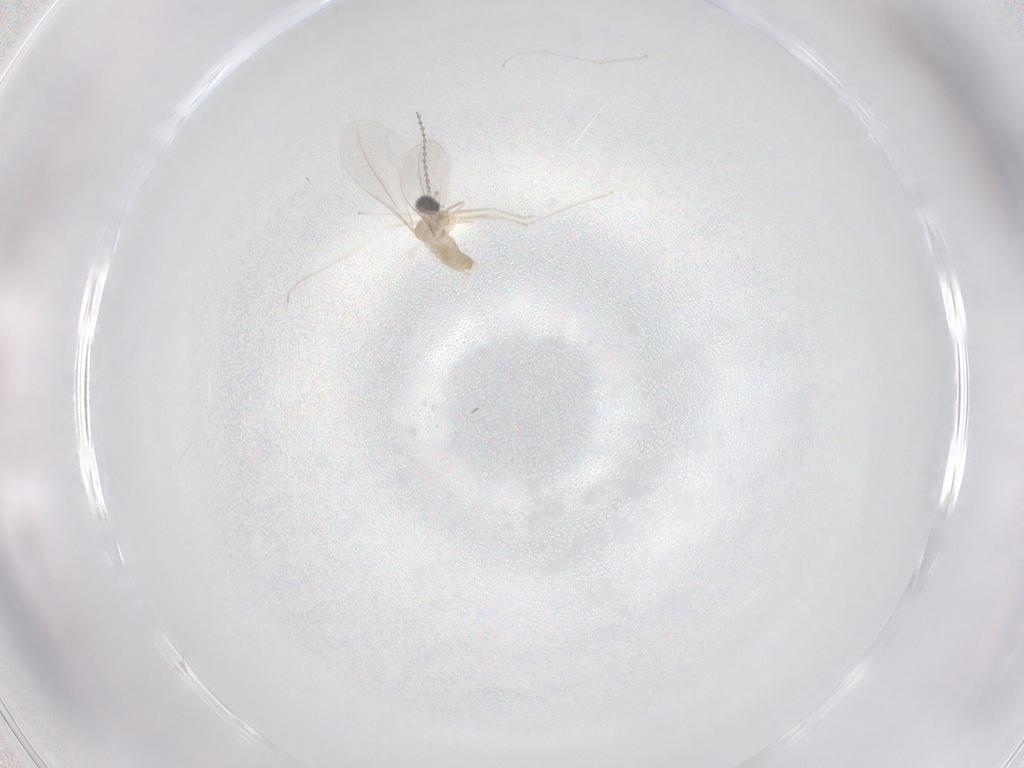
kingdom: Animalia
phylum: Arthropoda
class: Insecta
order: Diptera
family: Cecidomyiidae
